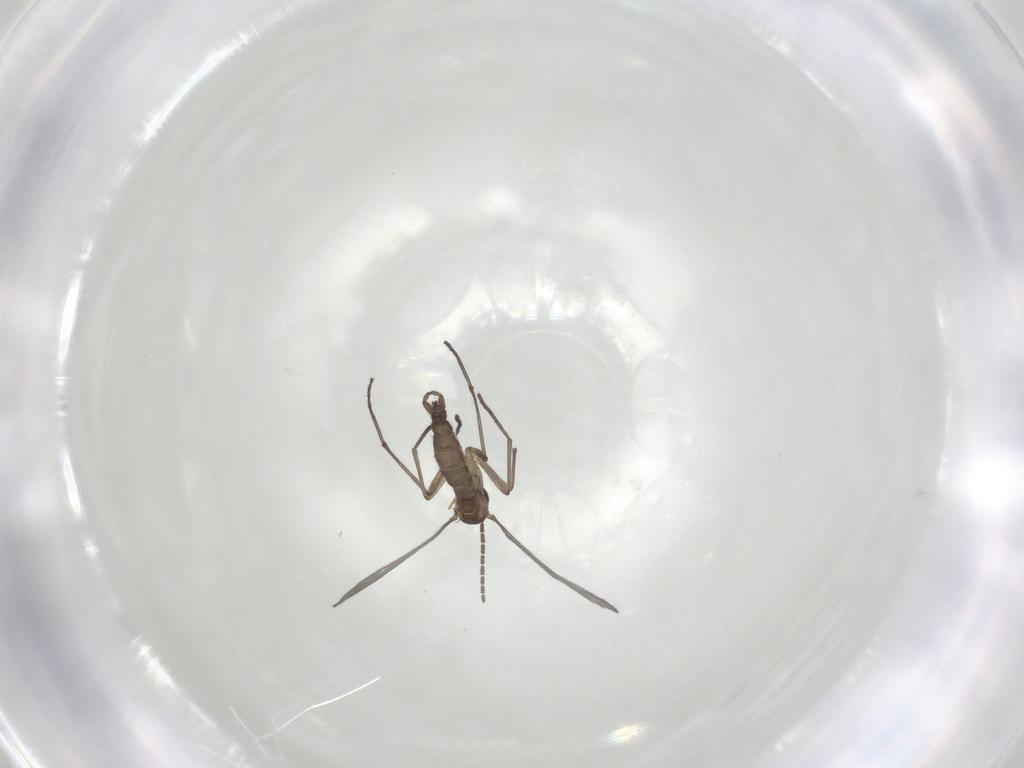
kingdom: Animalia
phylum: Arthropoda
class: Insecta
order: Diptera
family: Sciaridae
